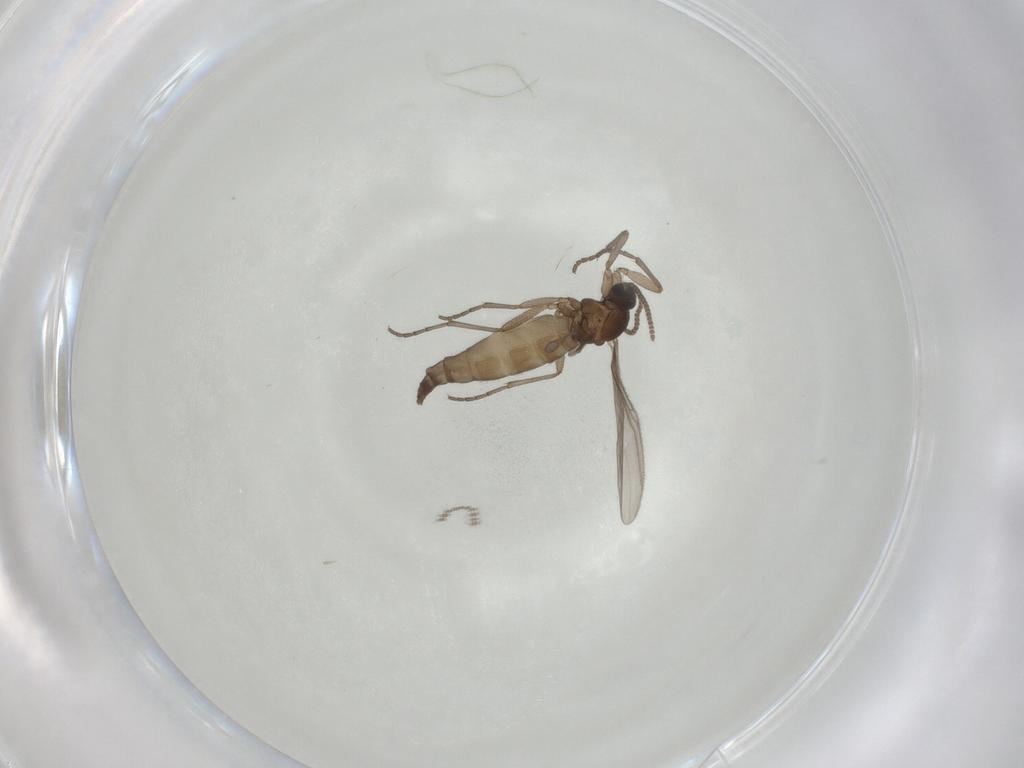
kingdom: Animalia
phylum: Arthropoda
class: Insecta
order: Diptera
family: Sciaridae
